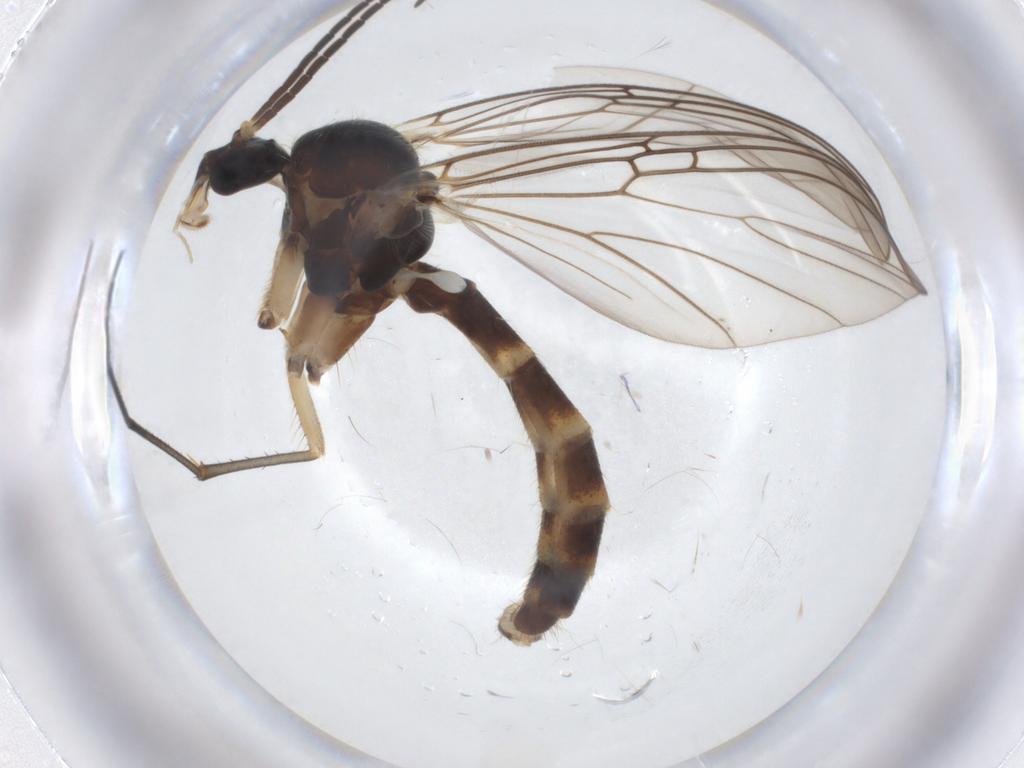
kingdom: Animalia
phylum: Arthropoda
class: Insecta
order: Diptera
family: Mycetophilidae
